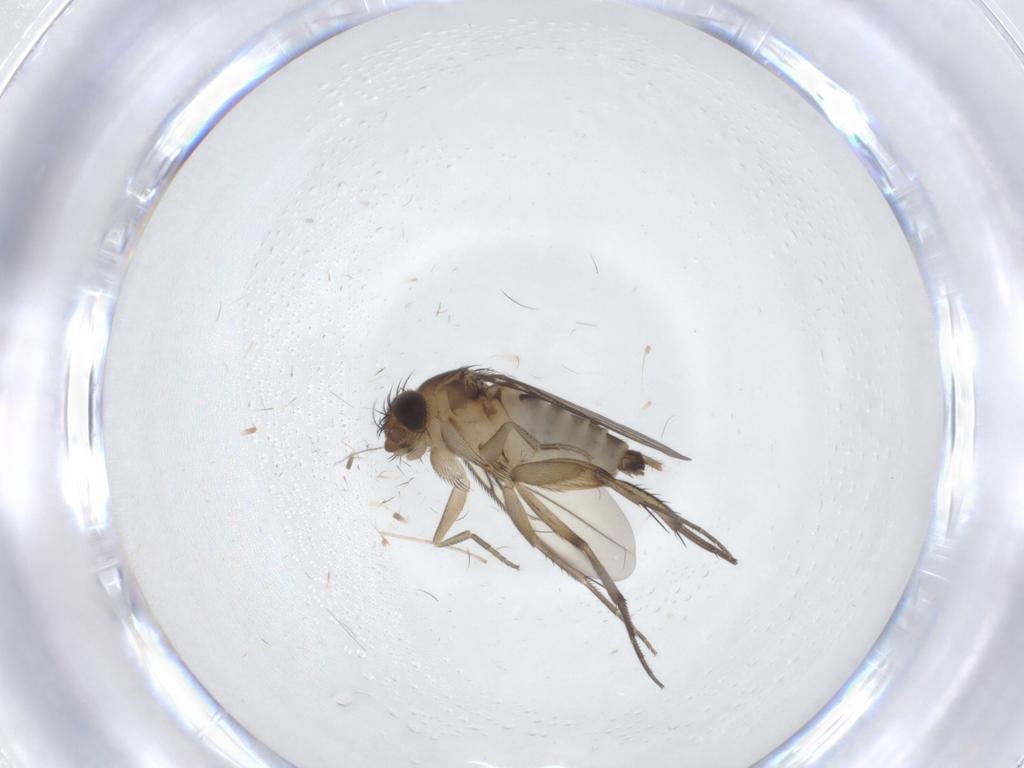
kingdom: Animalia
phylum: Arthropoda
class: Insecta
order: Diptera
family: Phoridae
